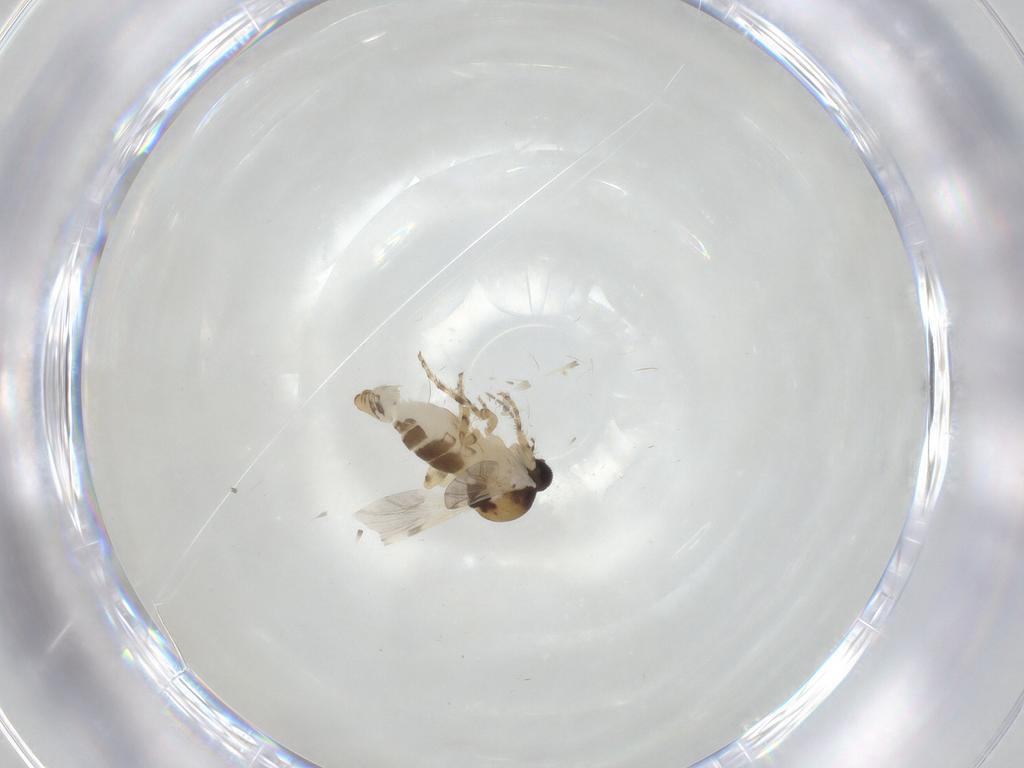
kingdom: Animalia
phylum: Arthropoda
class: Insecta
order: Diptera
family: Ceratopogonidae
